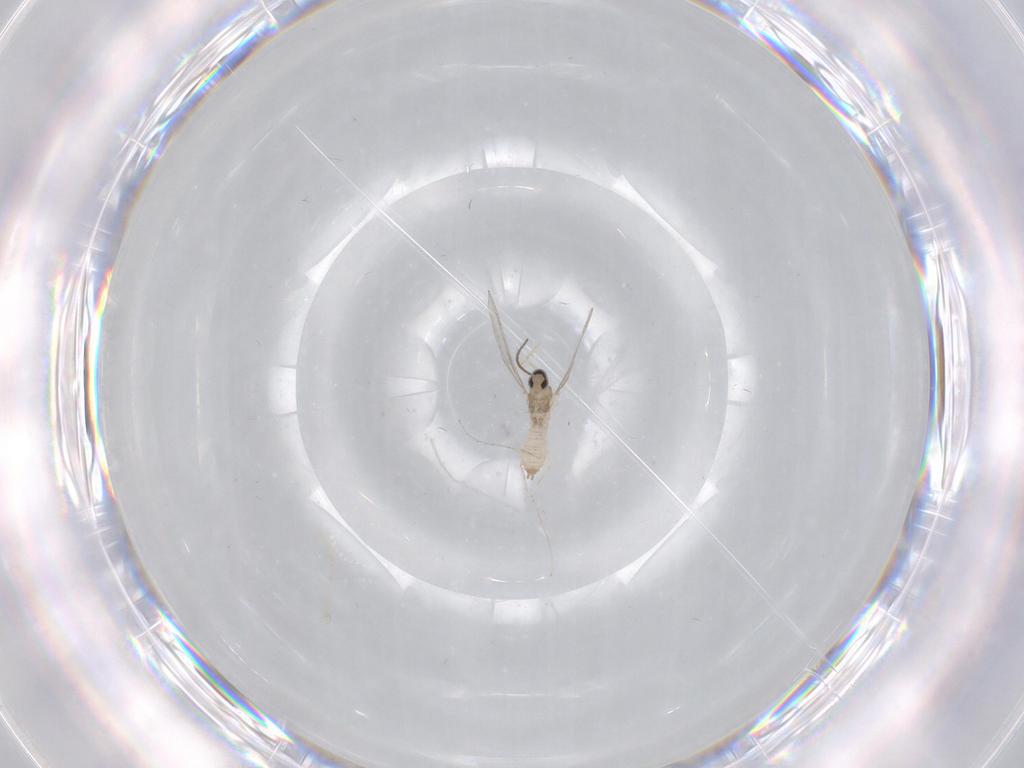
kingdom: Animalia
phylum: Arthropoda
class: Insecta
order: Diptera
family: Cecidomyiidae
